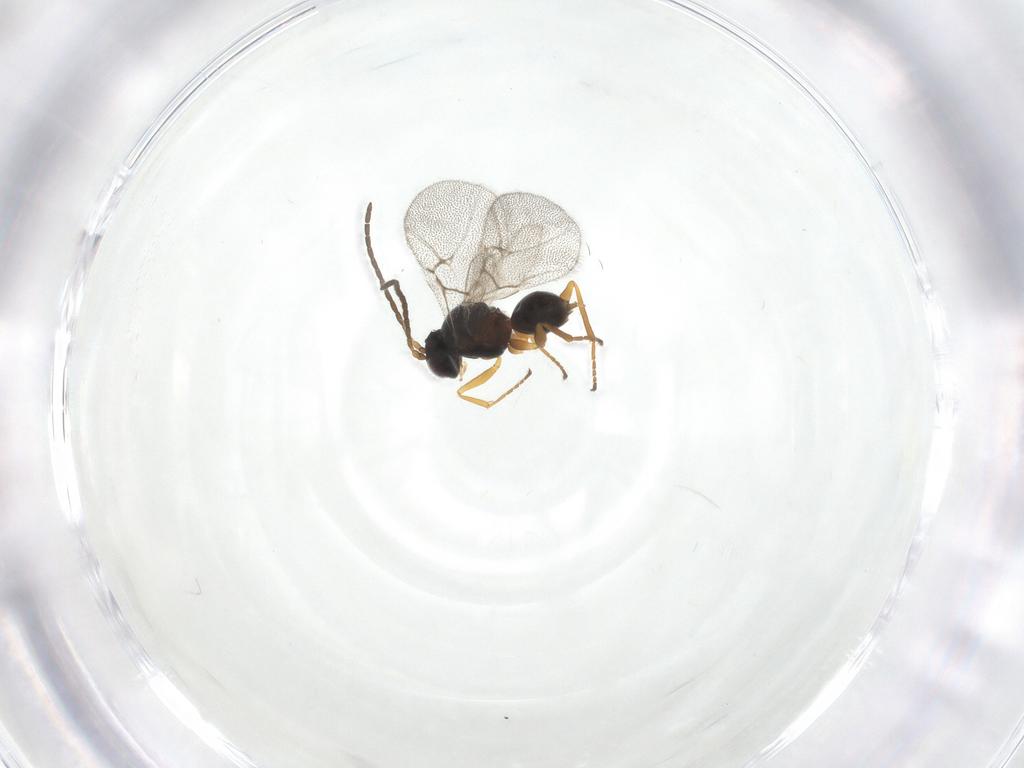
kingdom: Animalia
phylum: Arthropoda
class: Insecta
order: Hymenoptera
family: Cynipidae
